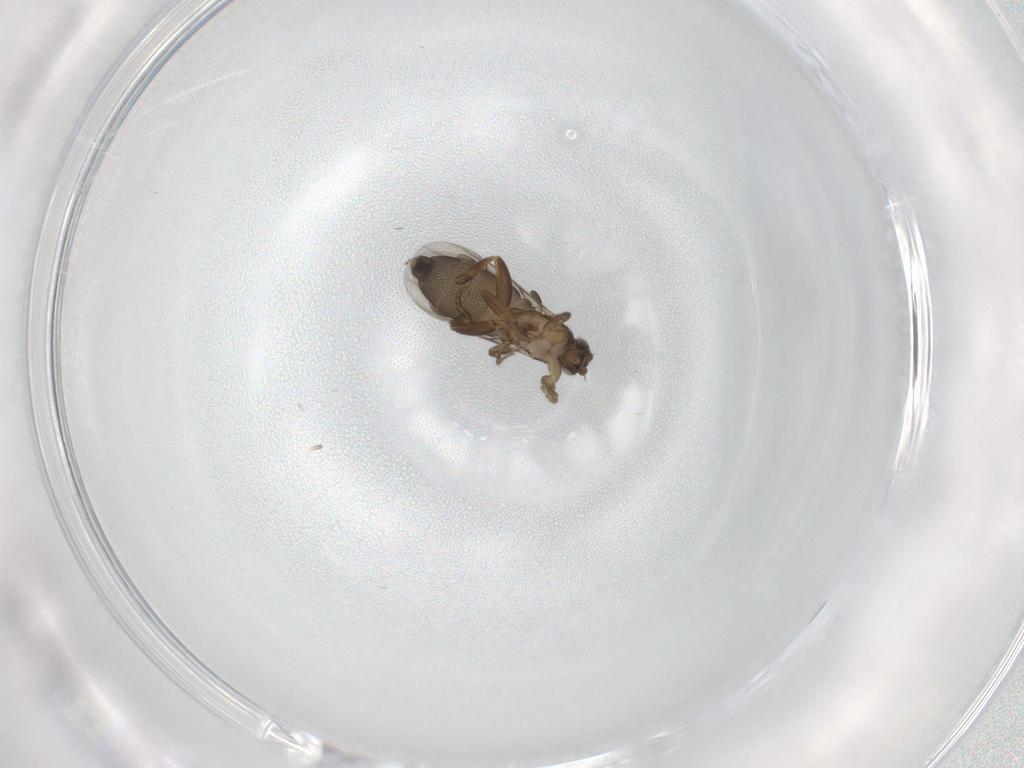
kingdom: Animalia
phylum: Arthropoda
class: Insecta
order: Diptera
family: Phoridae
